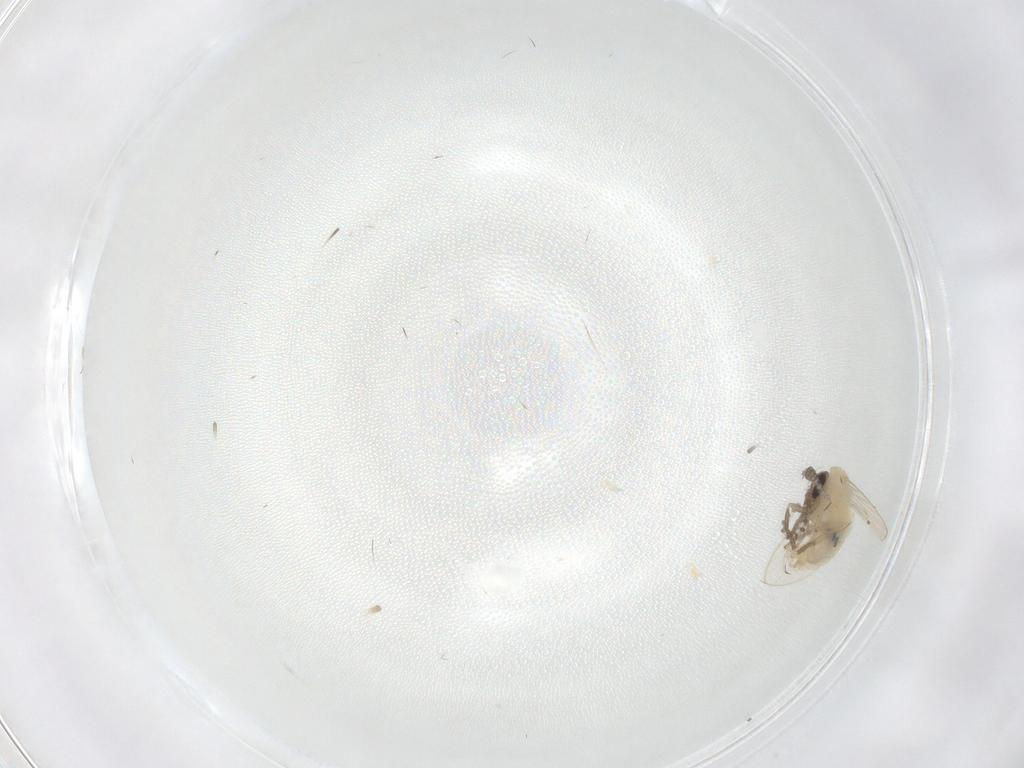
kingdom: Animalia
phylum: Arthropoda
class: Insecta
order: Diptera
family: Psychodidae
